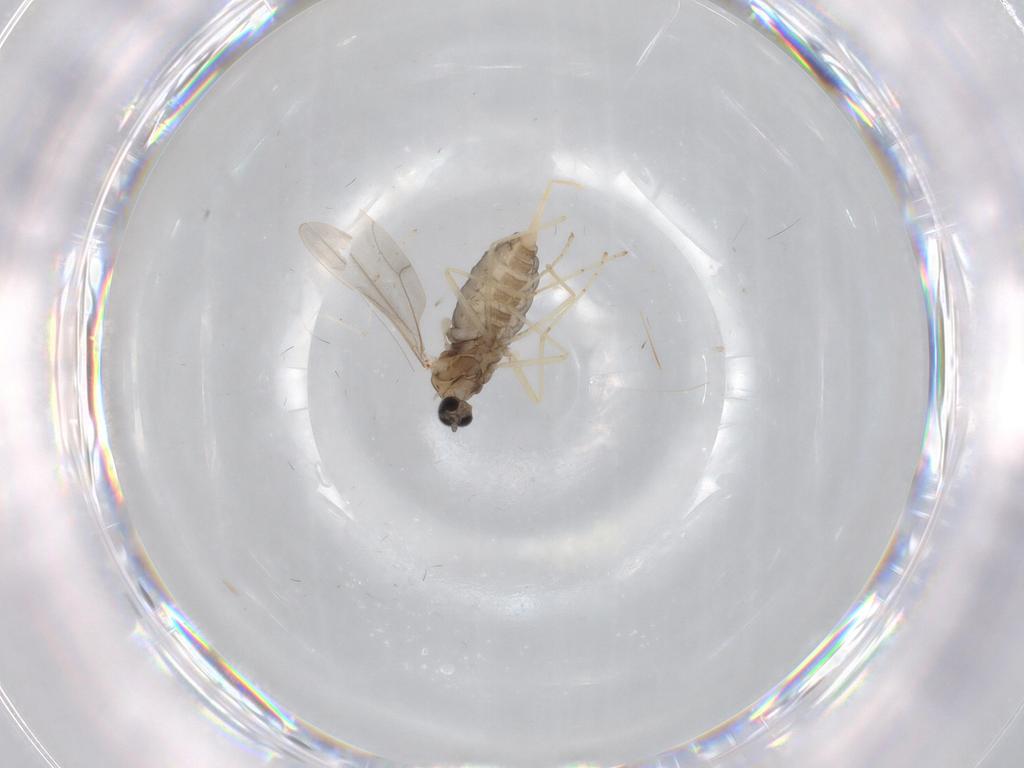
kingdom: Animalia
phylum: Arthropoda
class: Insecta
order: Diptera
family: Cecidomyiidae
